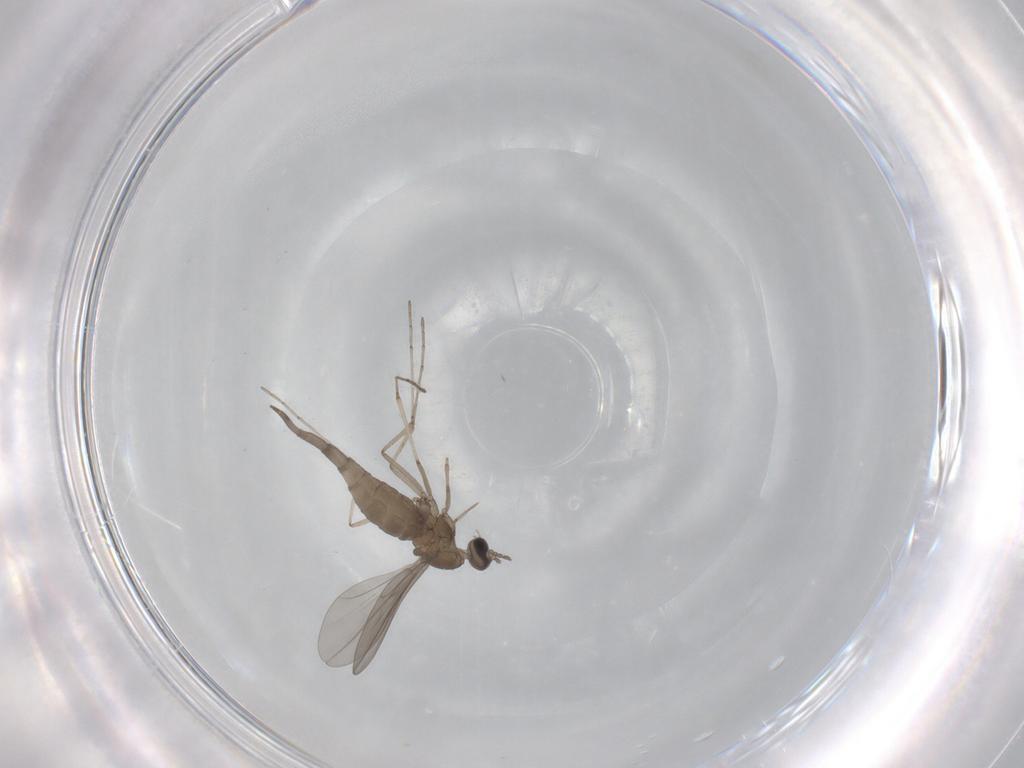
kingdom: Animalia
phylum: Arthropoda
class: Insecta
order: Diptera
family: Cecidomyiidae
